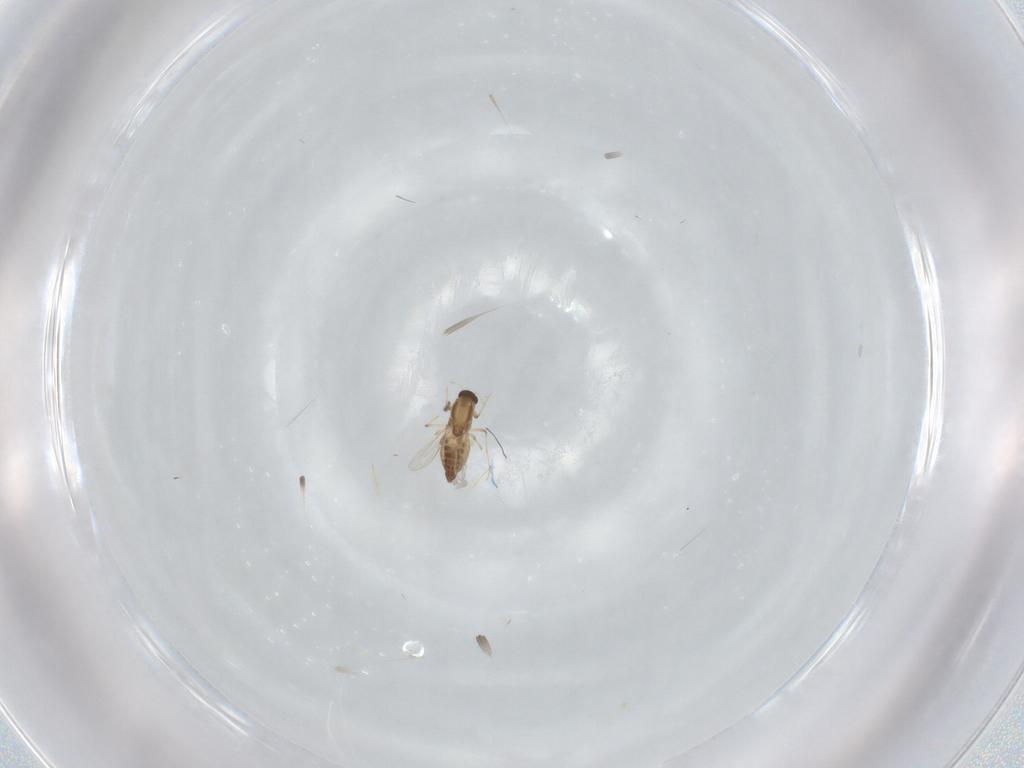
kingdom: Animalia
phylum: Arthropoda
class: Insecta
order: Diptera
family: Chironomidae
